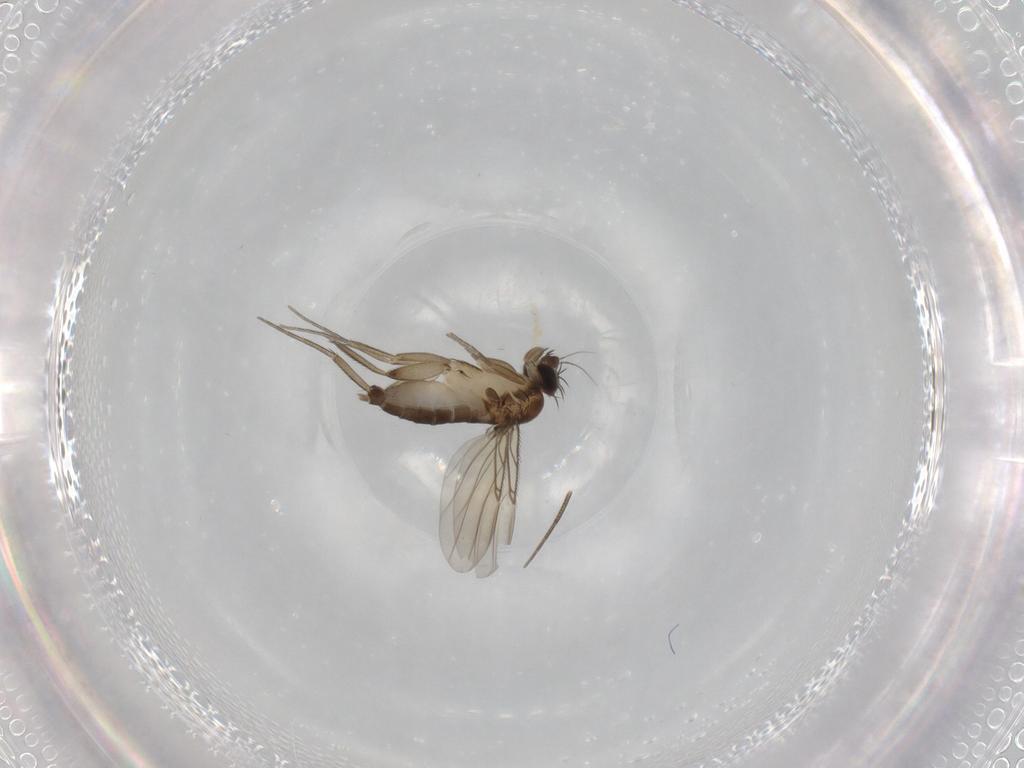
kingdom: Animalia
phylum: Arthropoda
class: Insecta
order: Diptera
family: Phoridae
